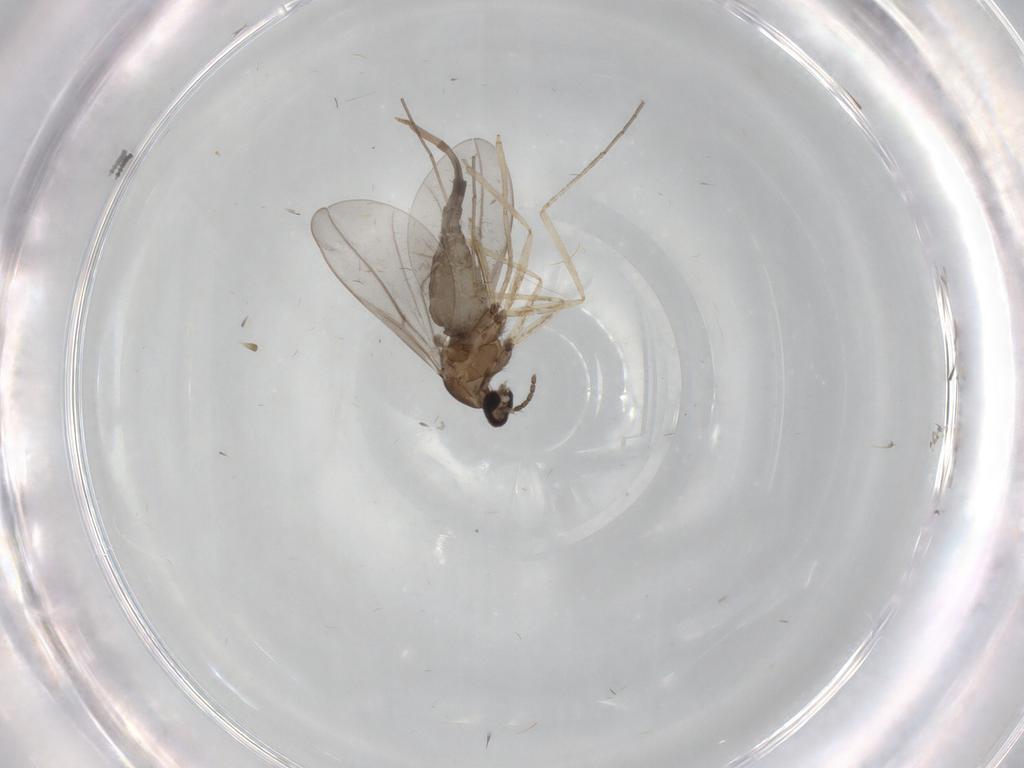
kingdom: Animalia
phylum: Arthropoda
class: Insecta
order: Diptera
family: Cecidomyiidae
